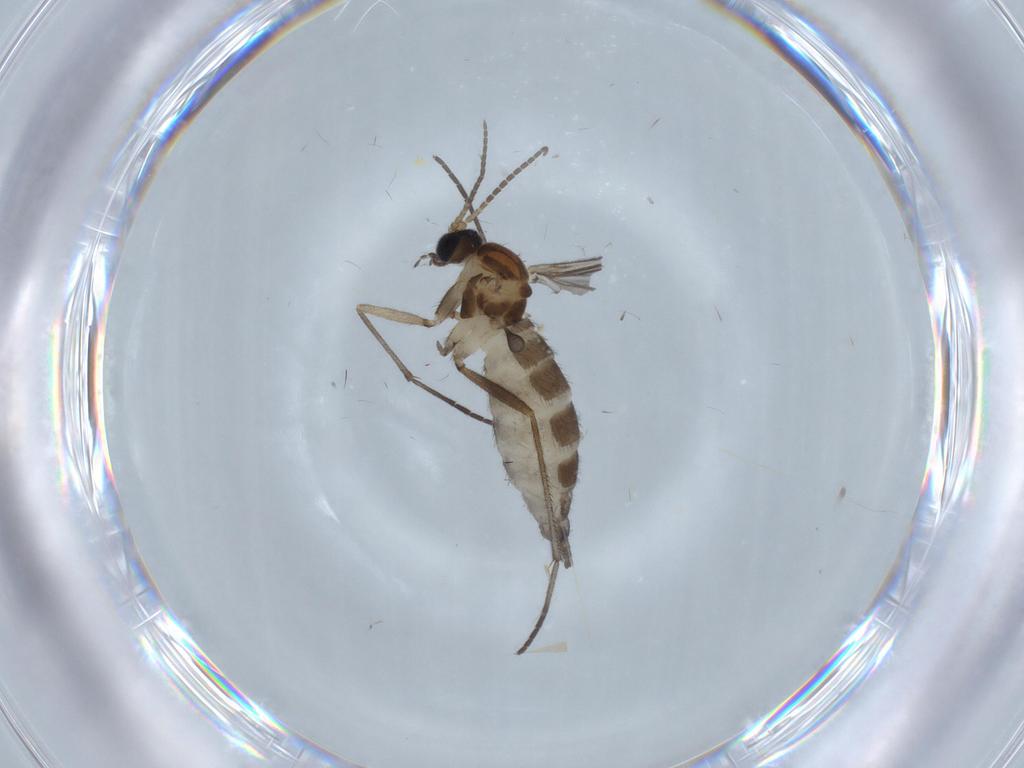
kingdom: Animalia
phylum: Arthropoda
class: Insecta
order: Diptera
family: Sciaridae
